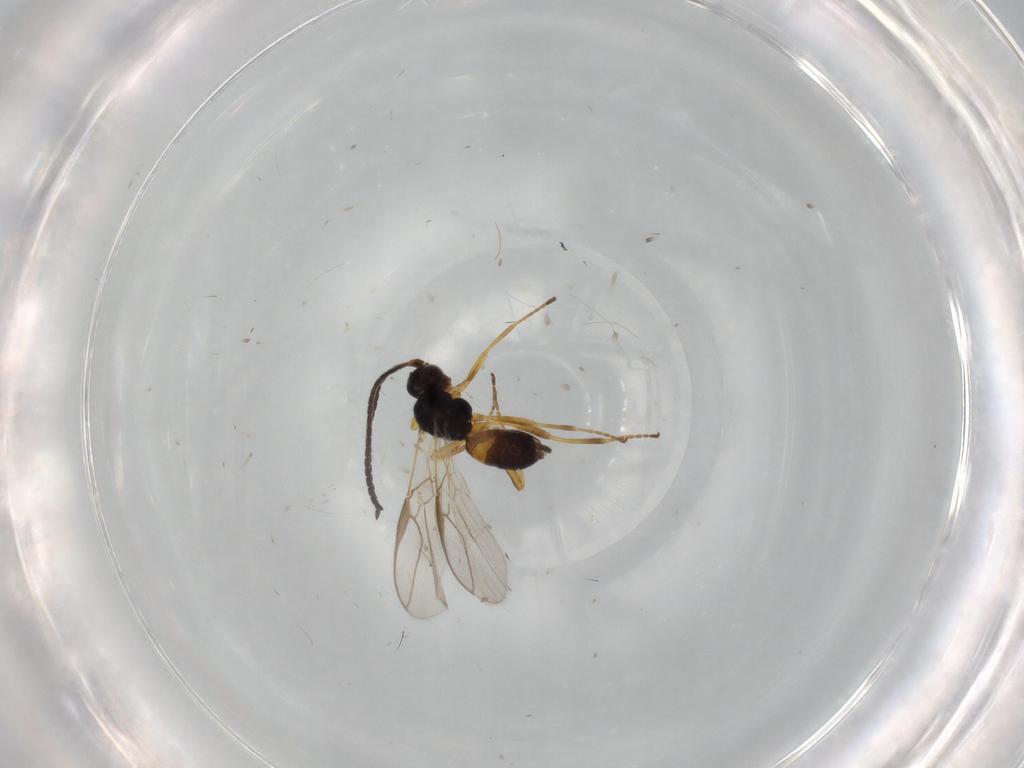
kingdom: Animalia
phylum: Arthropoda
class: Insecta
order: Hymenoptera
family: Braconidae
